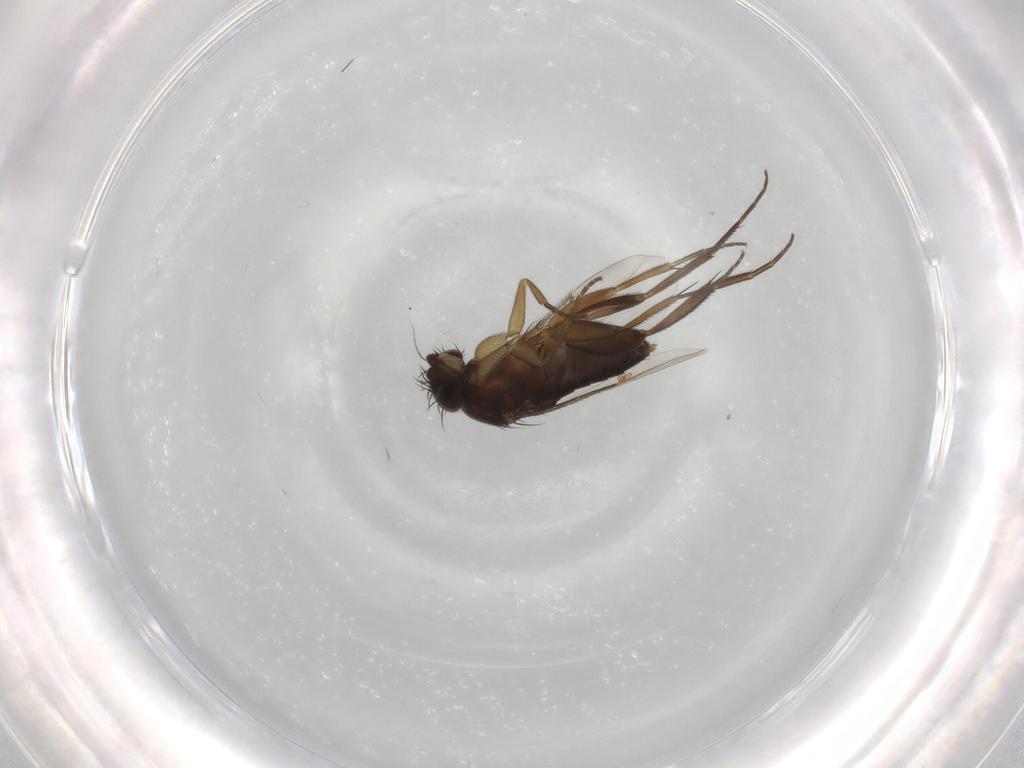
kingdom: Animalia
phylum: Arthropoda
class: Insecta
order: Diptera
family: Phoridae
